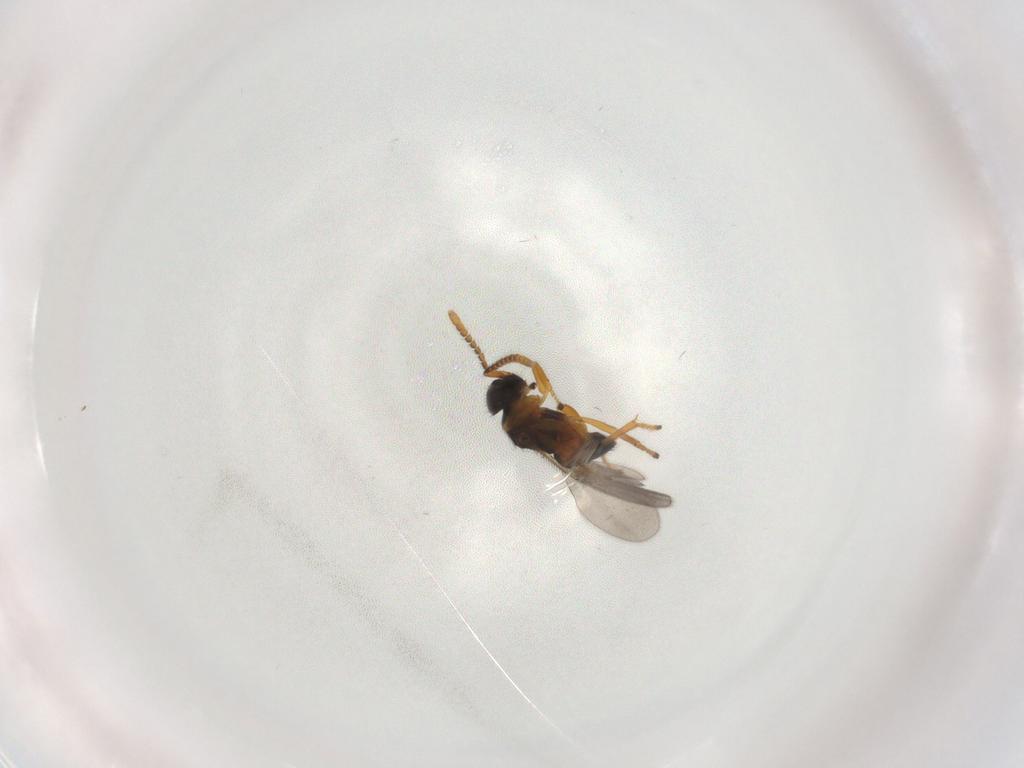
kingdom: Animalia
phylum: Arthropoda
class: Insecta
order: Hymenoptera
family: Encyrtidae
